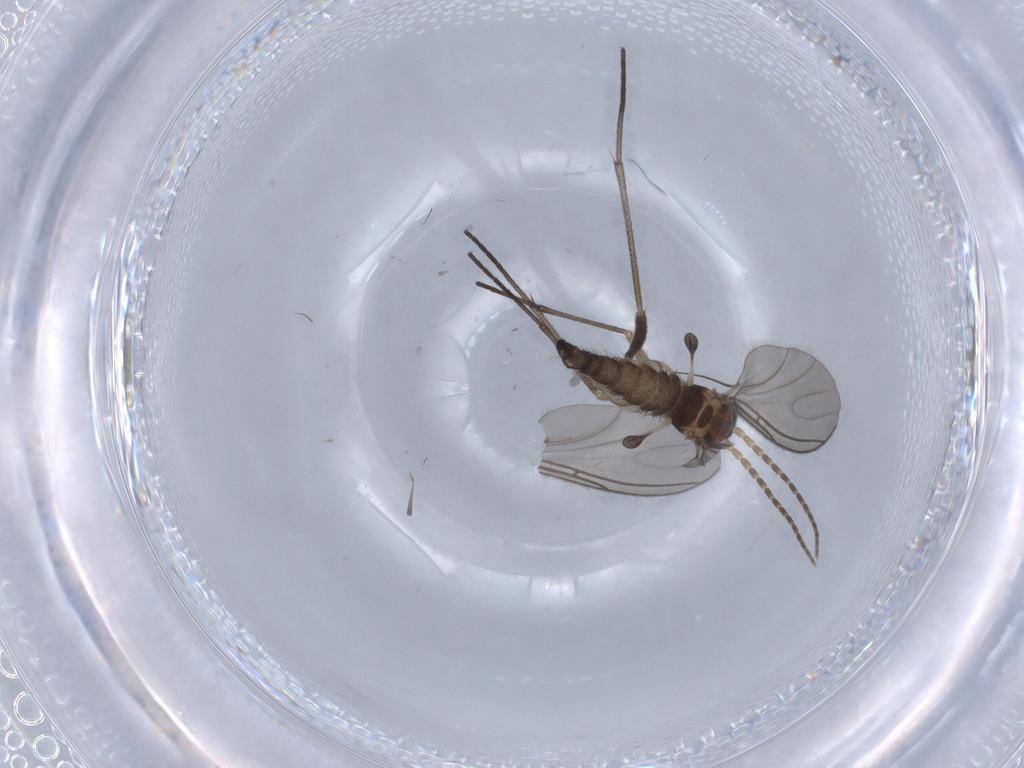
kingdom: Animalia
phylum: Arthropoda
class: Insecta
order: Diptera
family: Sciaridae
